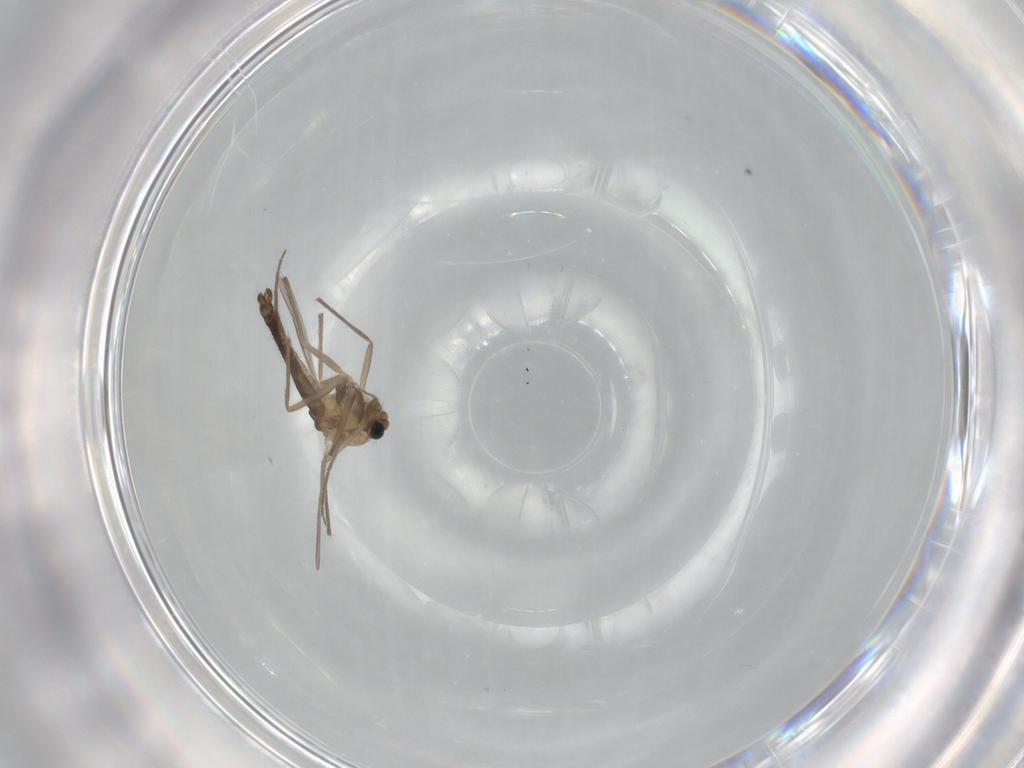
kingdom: Animalia
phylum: Arthropoda
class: Insecta
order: Diptera
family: Chironomidae
